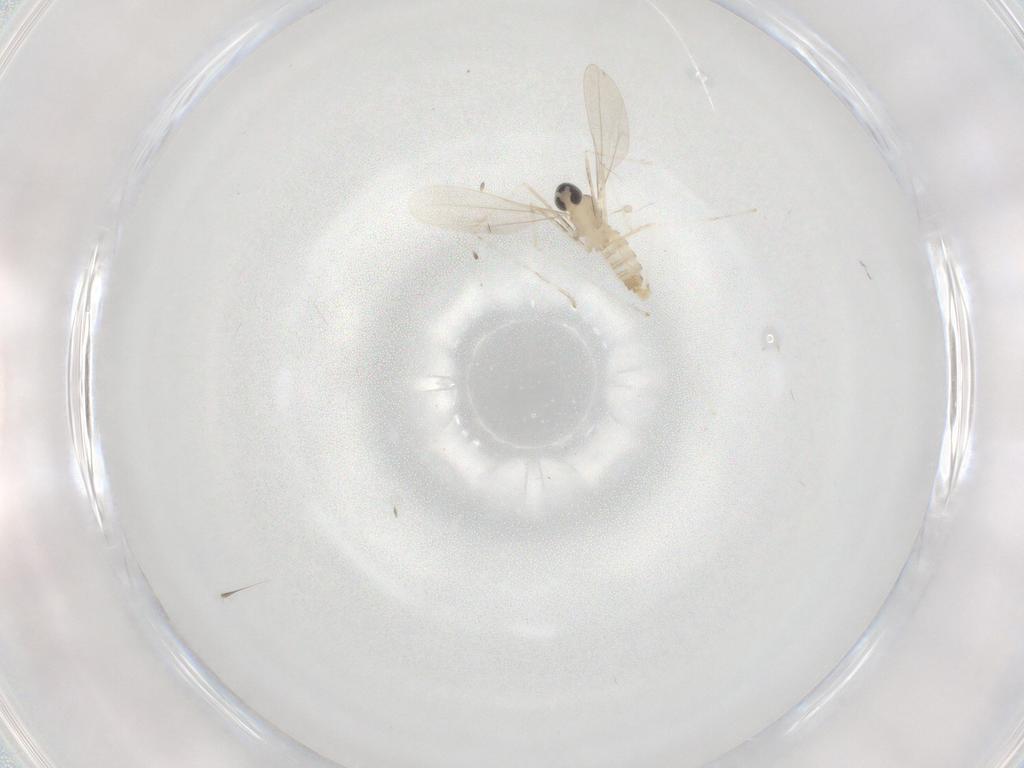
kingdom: Animalia
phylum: Arthropoda
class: Insecta
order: Diptera
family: Cecidomyiidae
